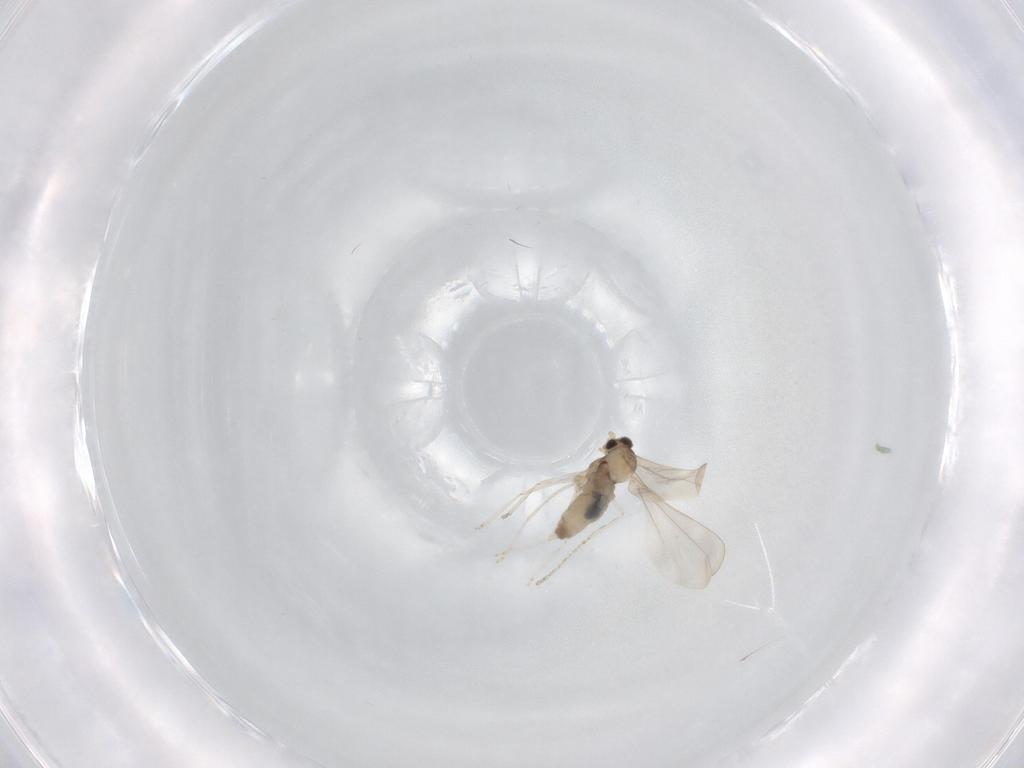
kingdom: Animalia
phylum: Arthropoda
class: Insecta
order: Diptera
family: Cecidomyiidae
